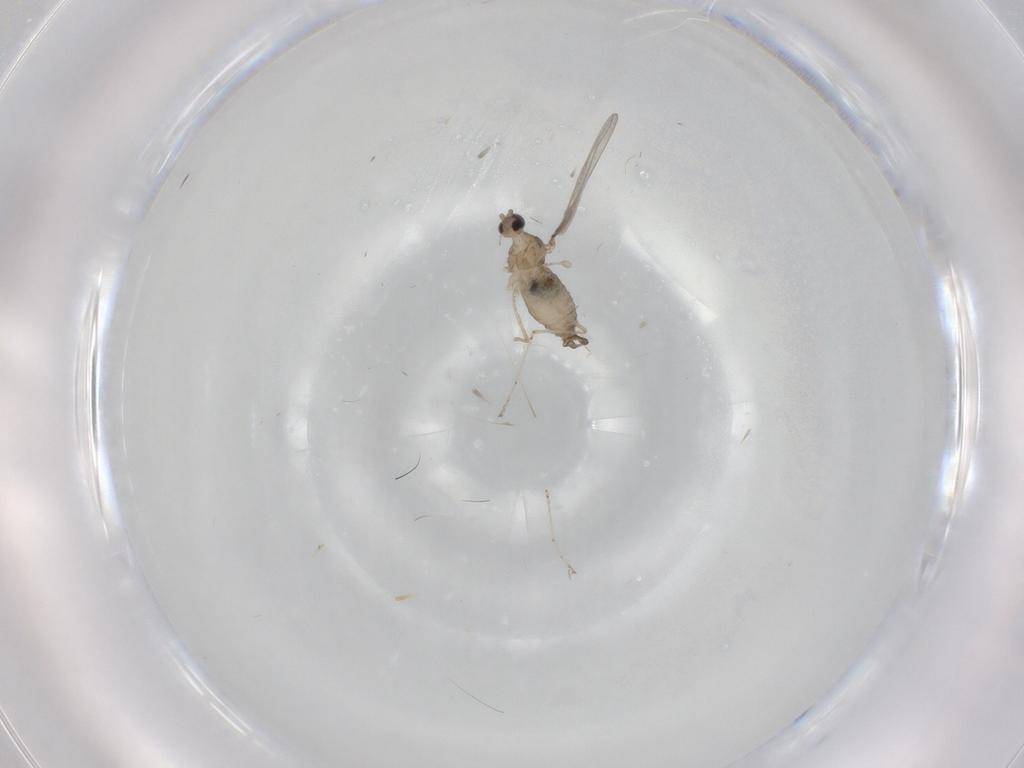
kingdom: Animalia
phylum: Arthropoda
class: Insecta
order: Diptera
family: Cecidomyiidae
